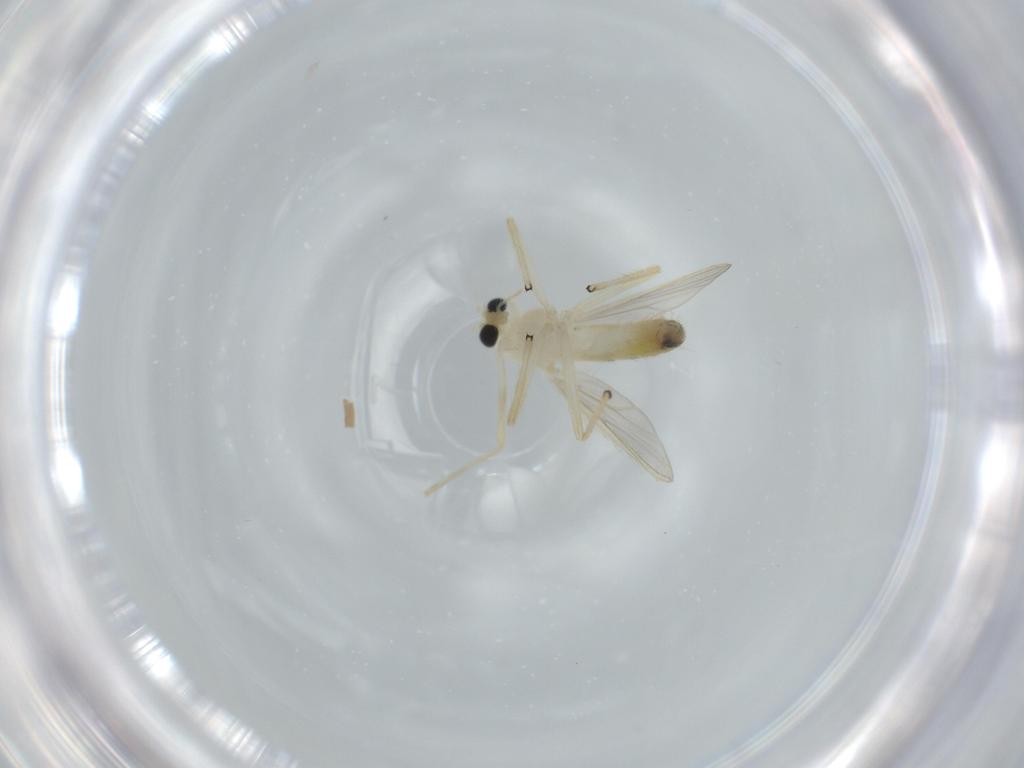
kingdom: Animalia
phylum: Arthropoda
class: Insecta
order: Diptera
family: Chironomidae
